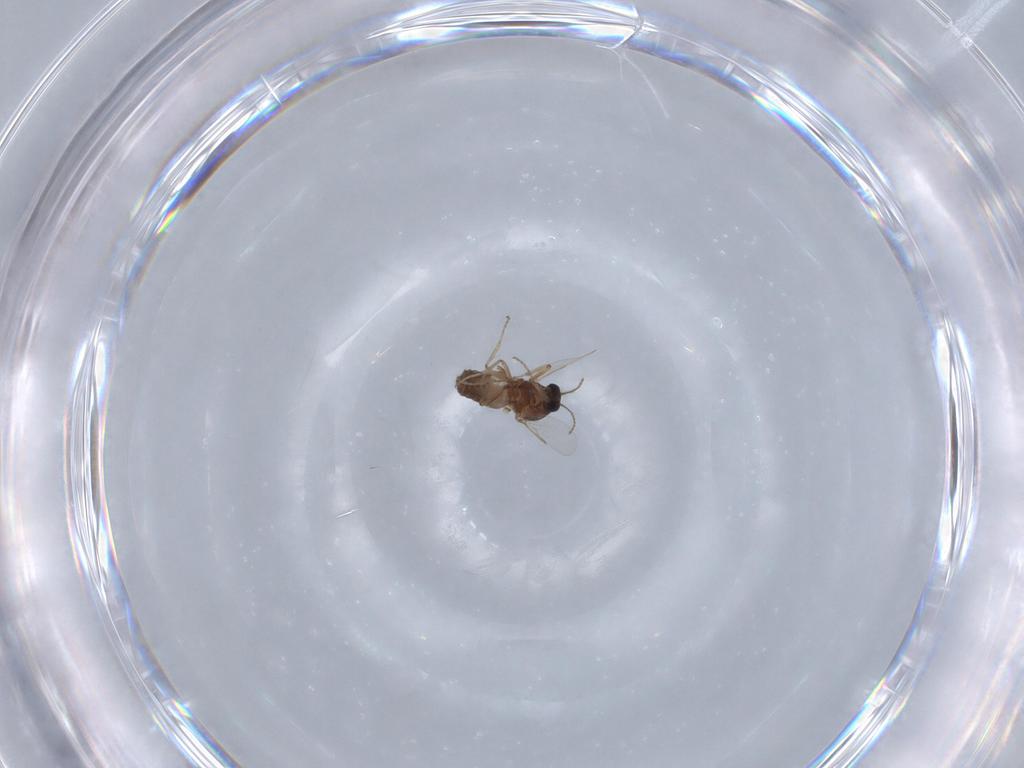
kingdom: Animalia
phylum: Arthropoda
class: Insecta
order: Diptera
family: Ceratopogonidae
